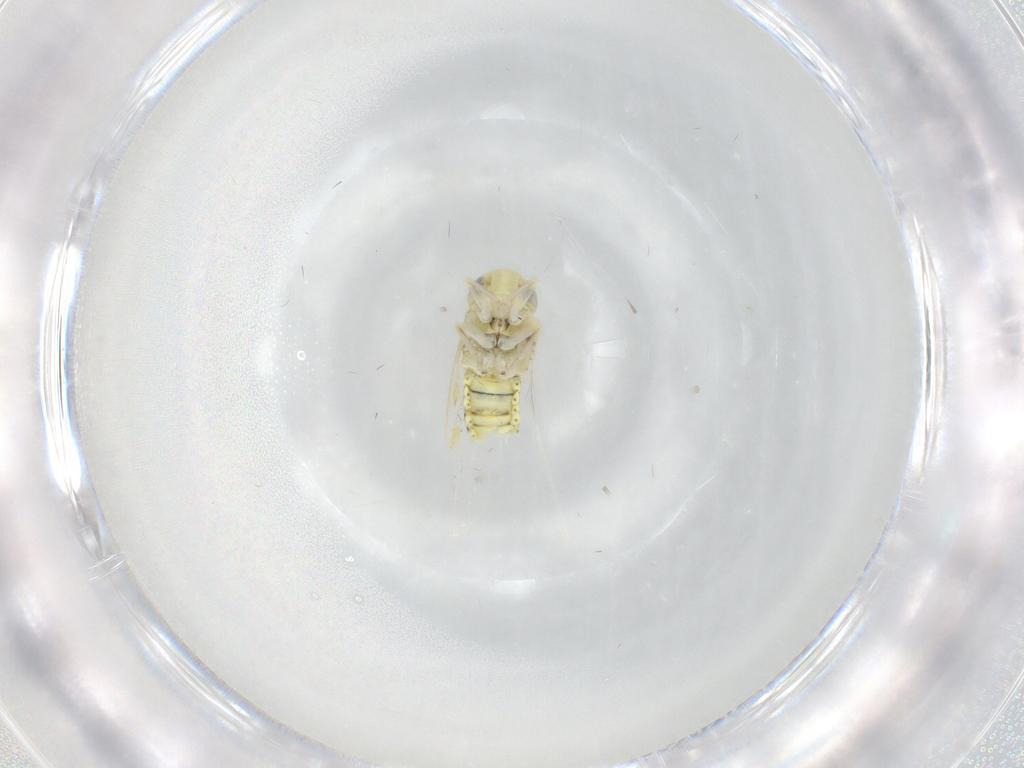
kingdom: Animalia
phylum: Arthropoda
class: Insecta
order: Hemiptera
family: Cicadellidae
